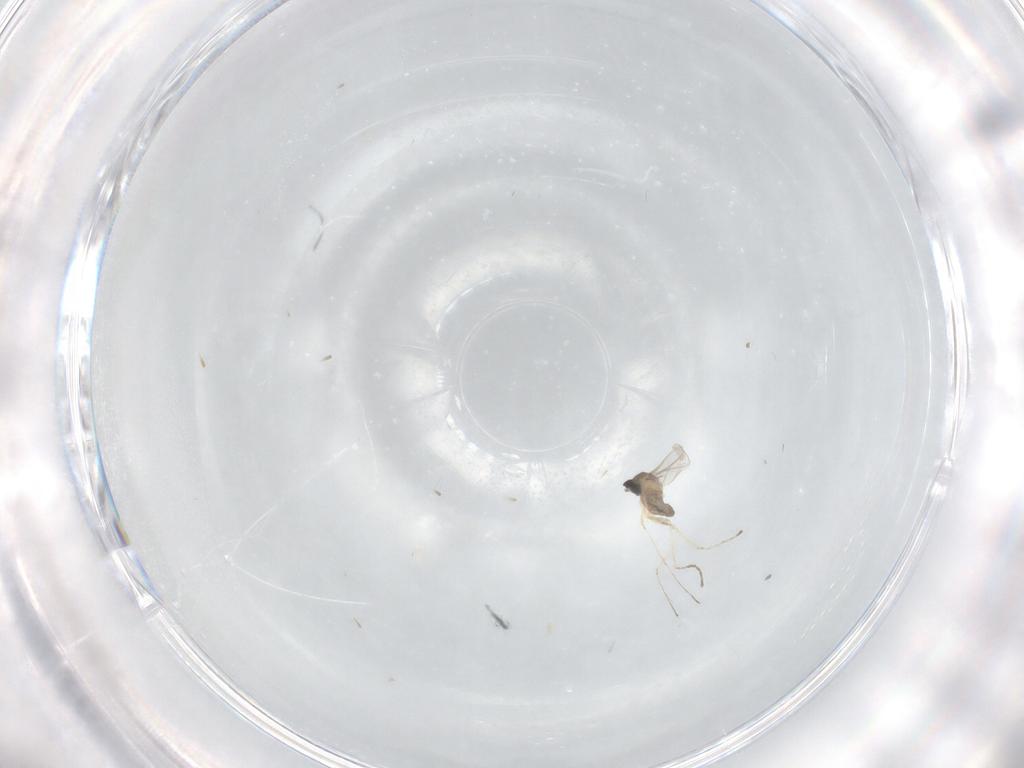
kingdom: Animalia
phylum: Arthropoda
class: Insecta
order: Diptera
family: Cecidomyiidae
